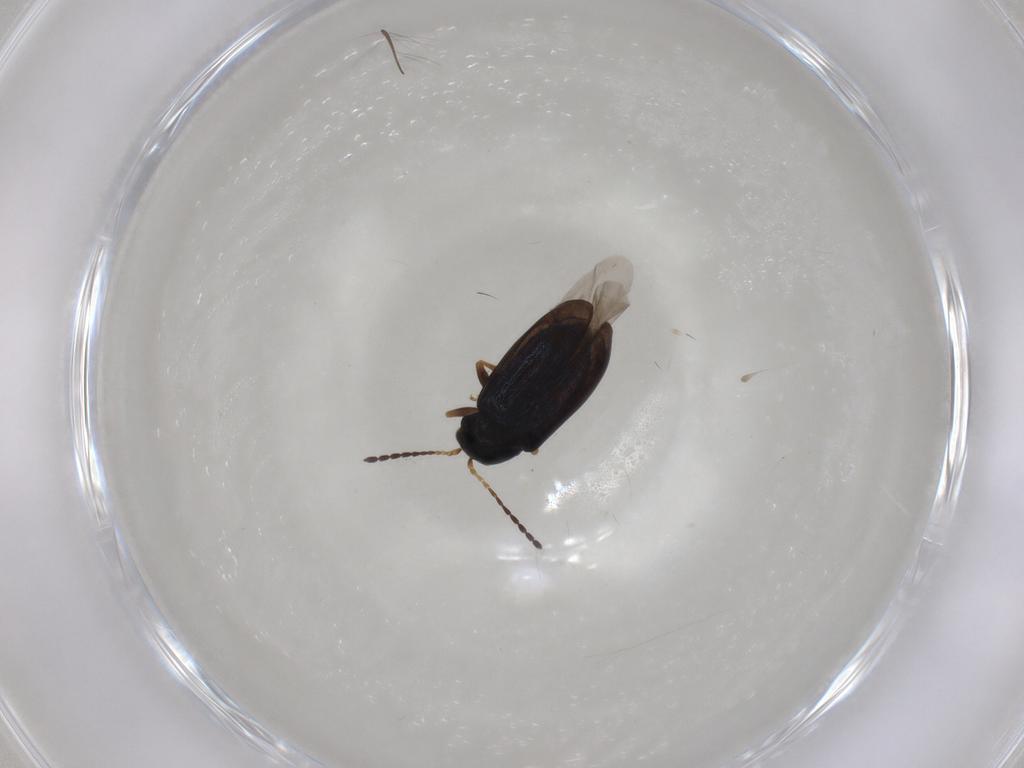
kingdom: Animalia
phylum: Arthropoda
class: Insecta
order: Coleoptera
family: Chrysomelidae
